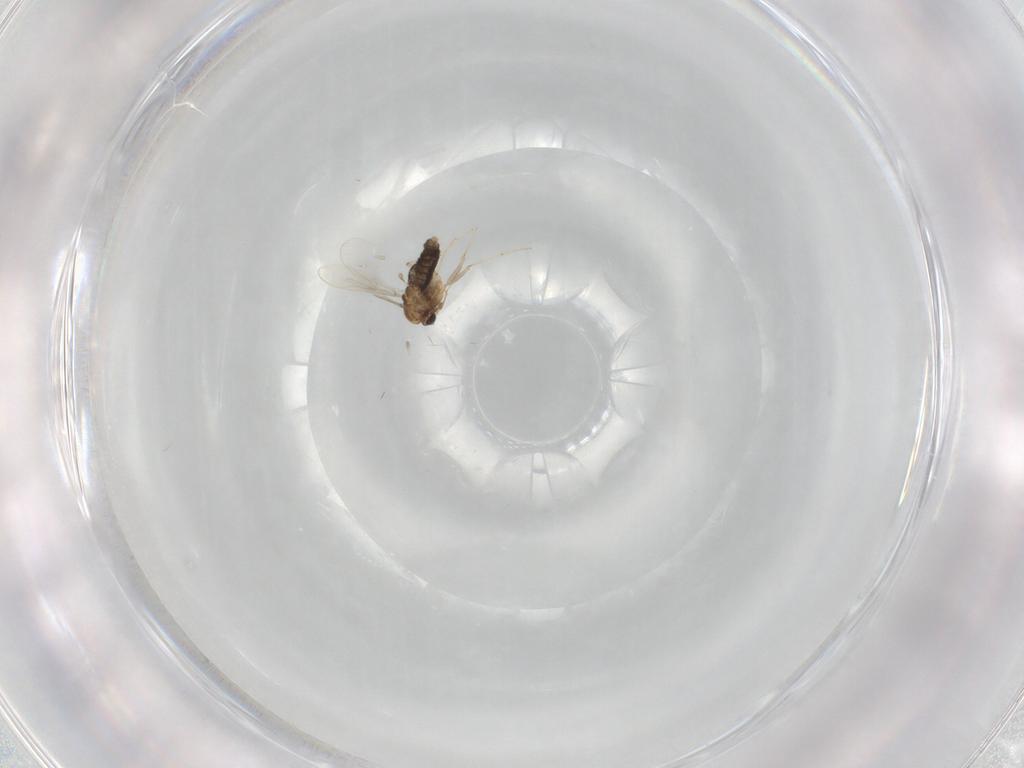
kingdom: Animalia
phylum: Arthropoda
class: Insecta
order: Diptera
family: Chironomidae
